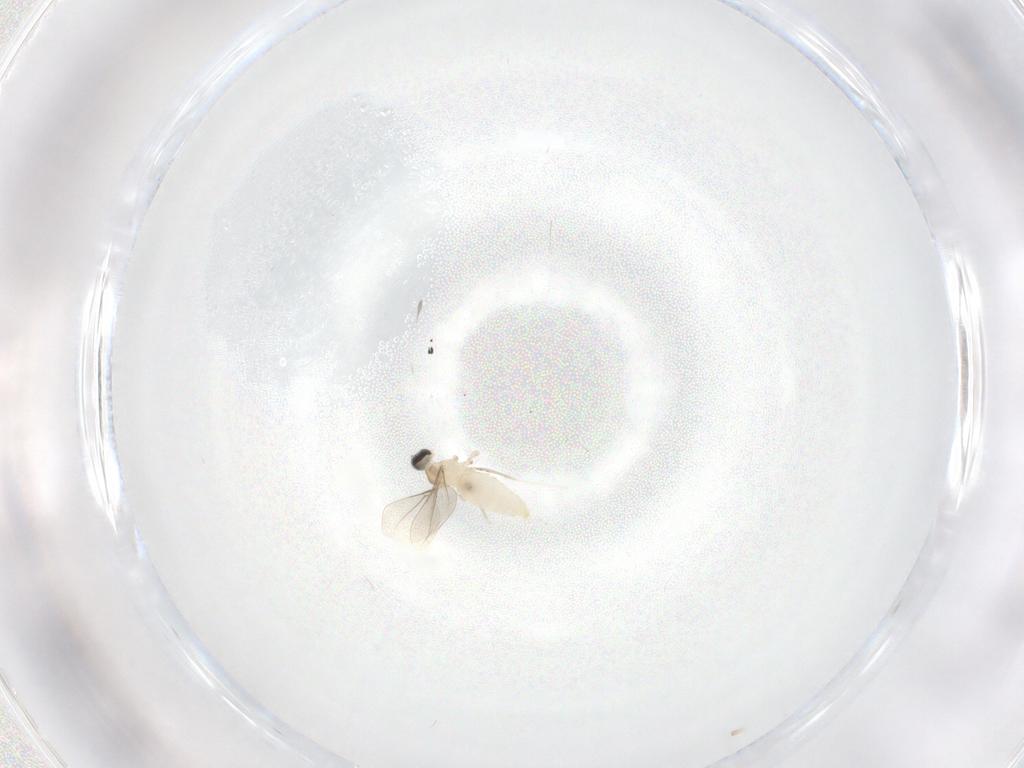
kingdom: Animalia
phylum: Arthropoda
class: Insecta
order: Diptera
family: Cecidomyiidae
